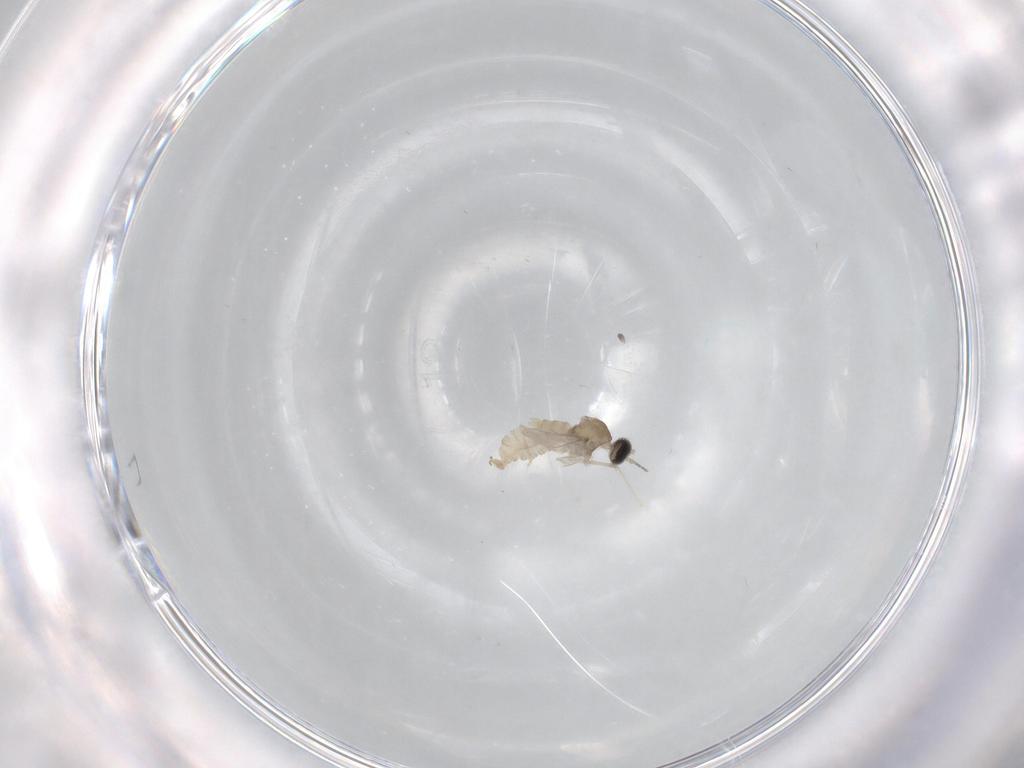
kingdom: Animalia
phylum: Arthropoda
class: Insecta
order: Diptera
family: Cecidomyiidae
